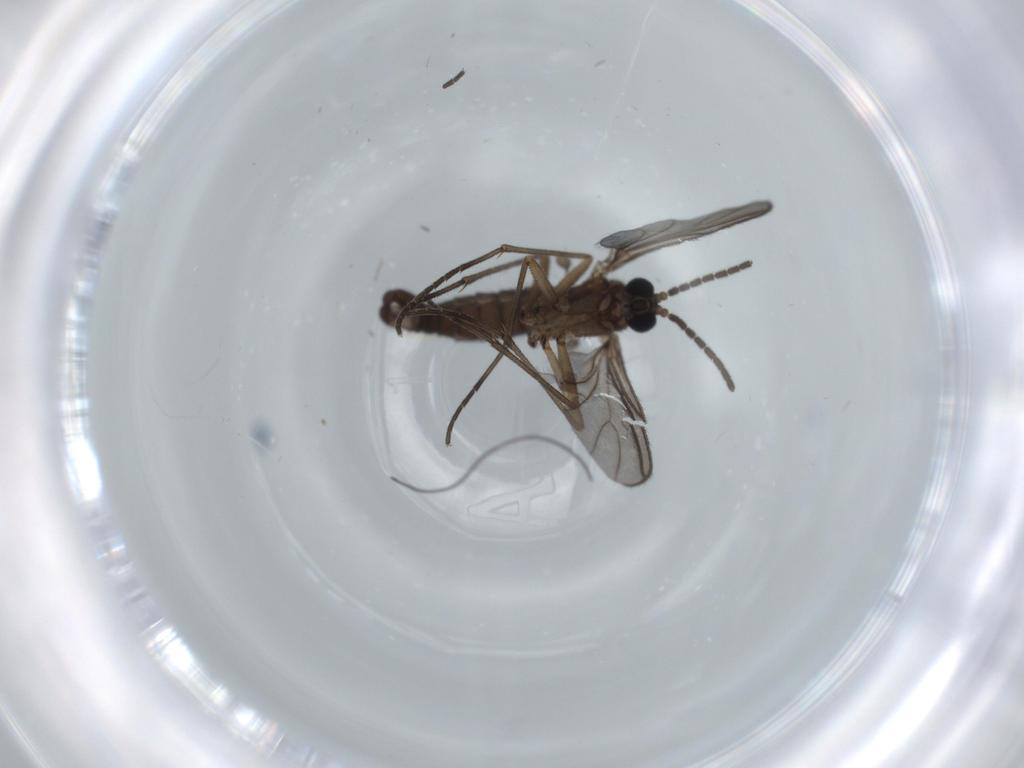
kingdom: Animalia
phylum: Arthropoda
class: Insecta
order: Diptera
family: Sciaridae
